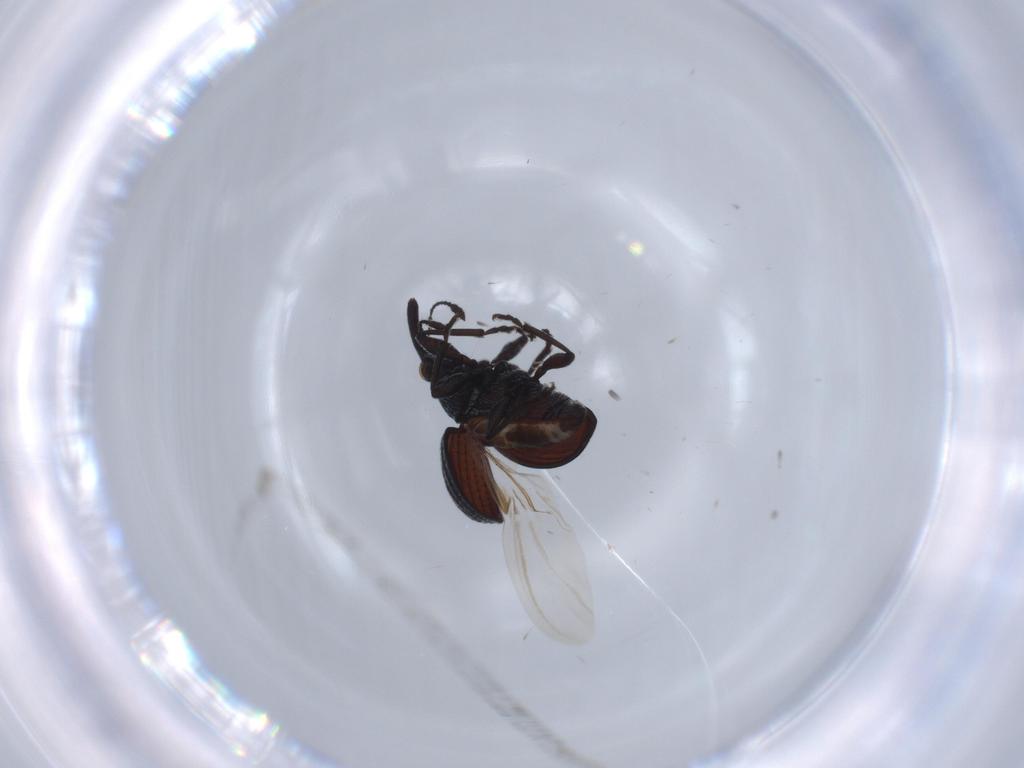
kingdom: Animalia
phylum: Arthropoda
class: Insecta
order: Coleoptera
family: Brentidae
